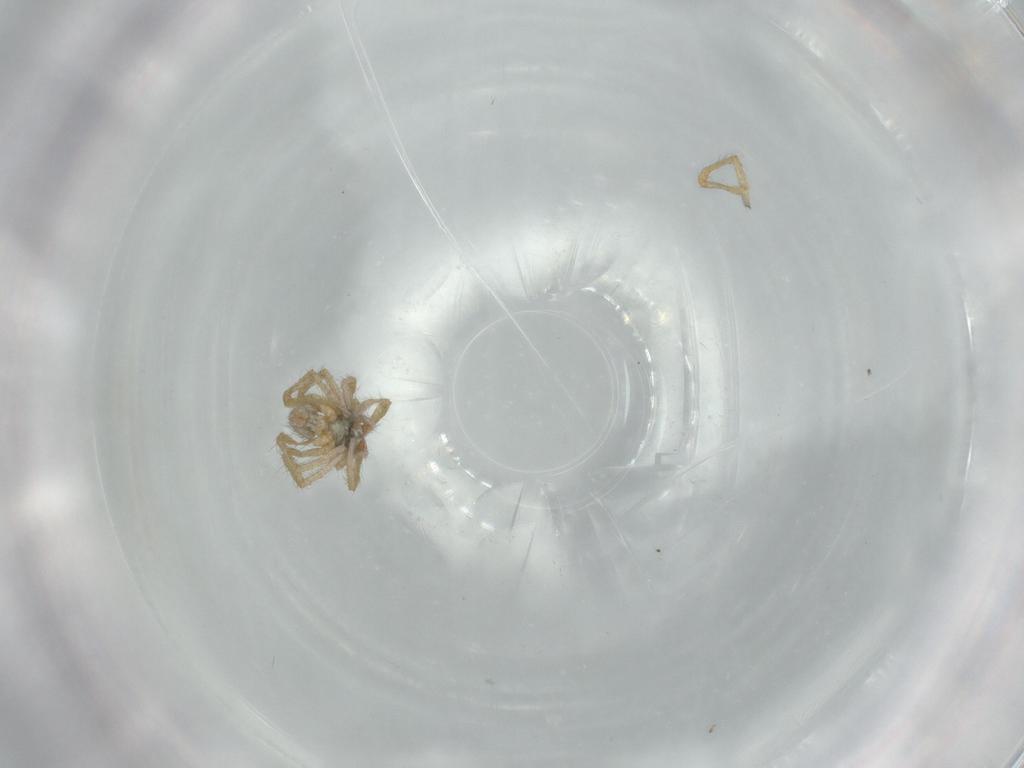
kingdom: Animalia
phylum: Arthropoda
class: Arachnida
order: Araneae
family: Linyphiidae
